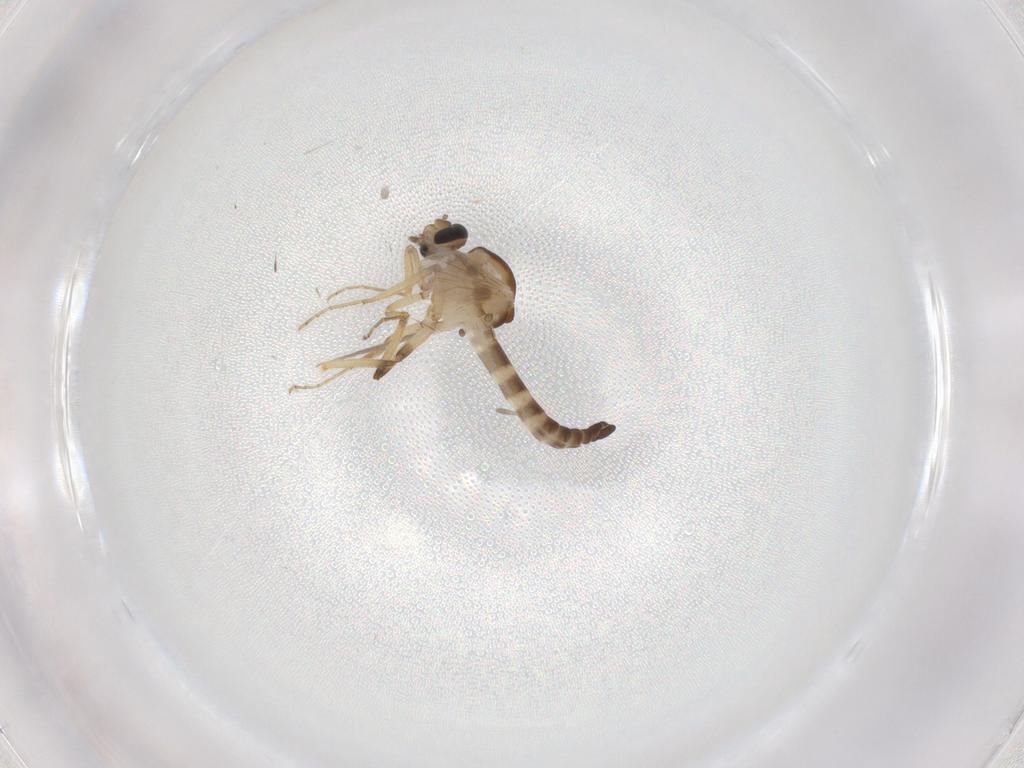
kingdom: Animalia
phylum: Arthropoda
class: Insecta
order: Diptera
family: Ceratopogonidae
